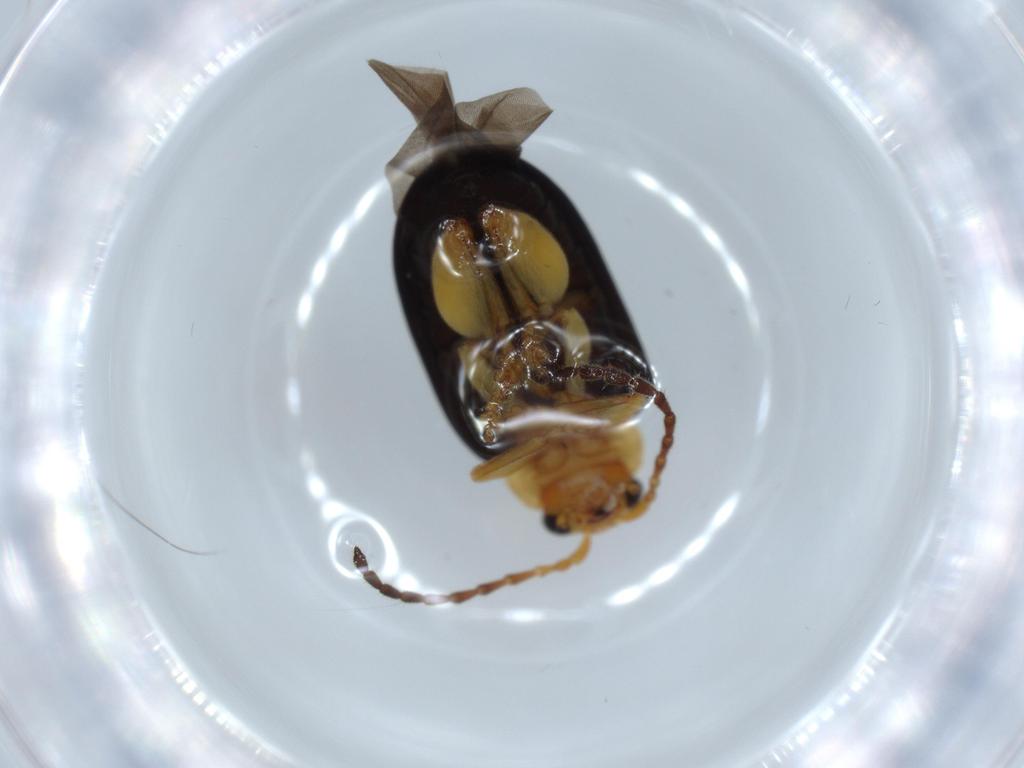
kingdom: Animalia
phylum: Arthropoda
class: Insecta
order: Coleoptera
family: Chrysomelidae
